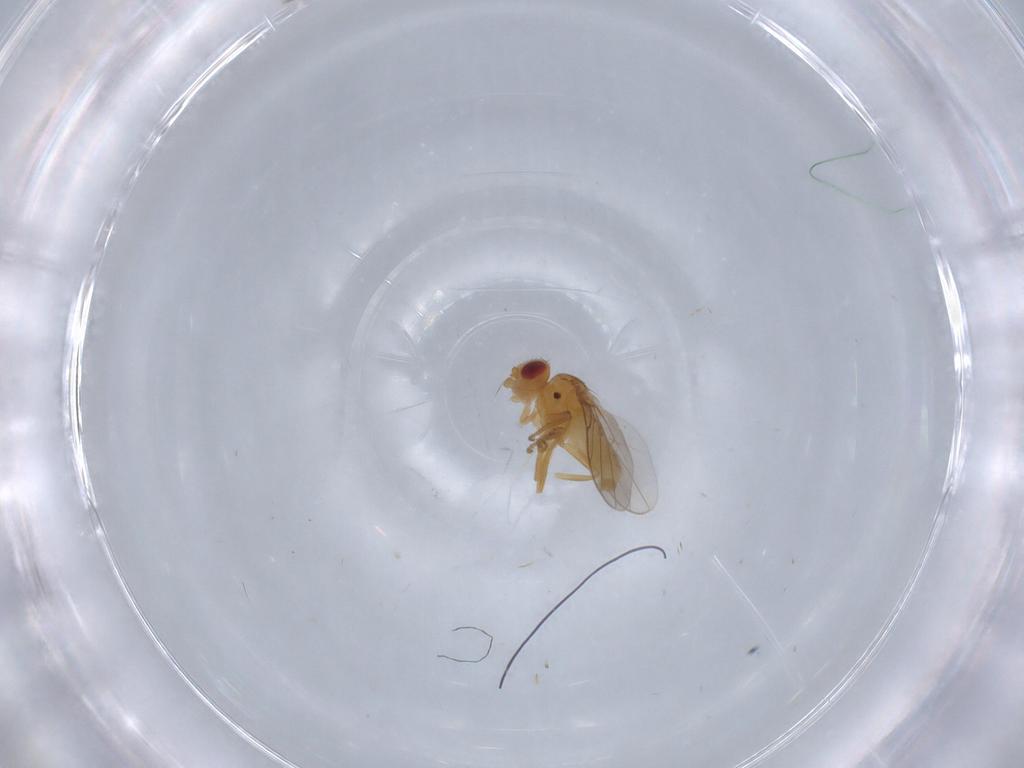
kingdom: Animalia
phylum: Arthropoda
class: Insecta
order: Diptera
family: Chloropidae
